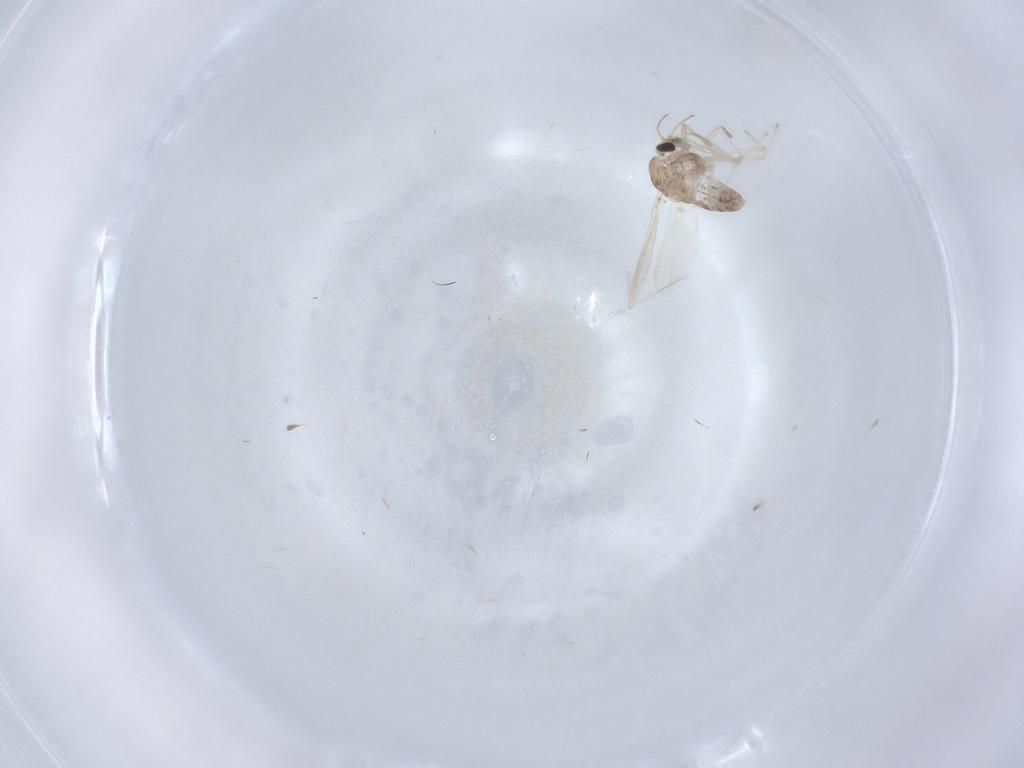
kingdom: Animalia
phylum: Arthropoda
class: Insecta
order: Diptera
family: Chironomidae
